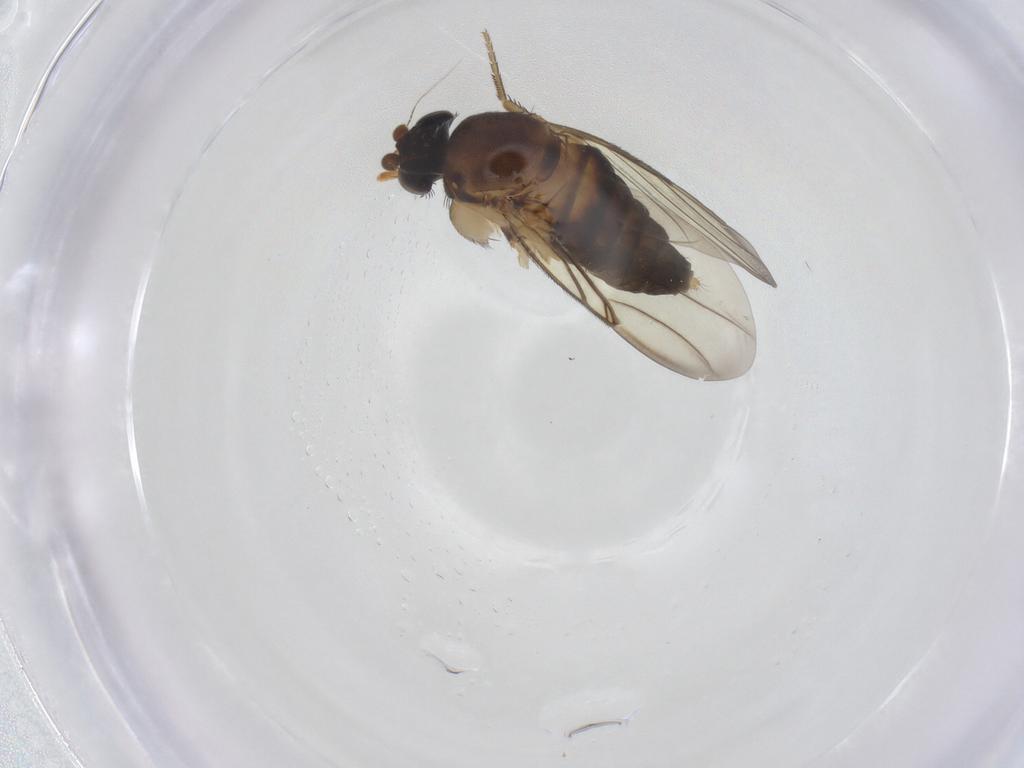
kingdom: Animalia
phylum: Arthropoda
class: Insecta
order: Diptera
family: Phoridae
